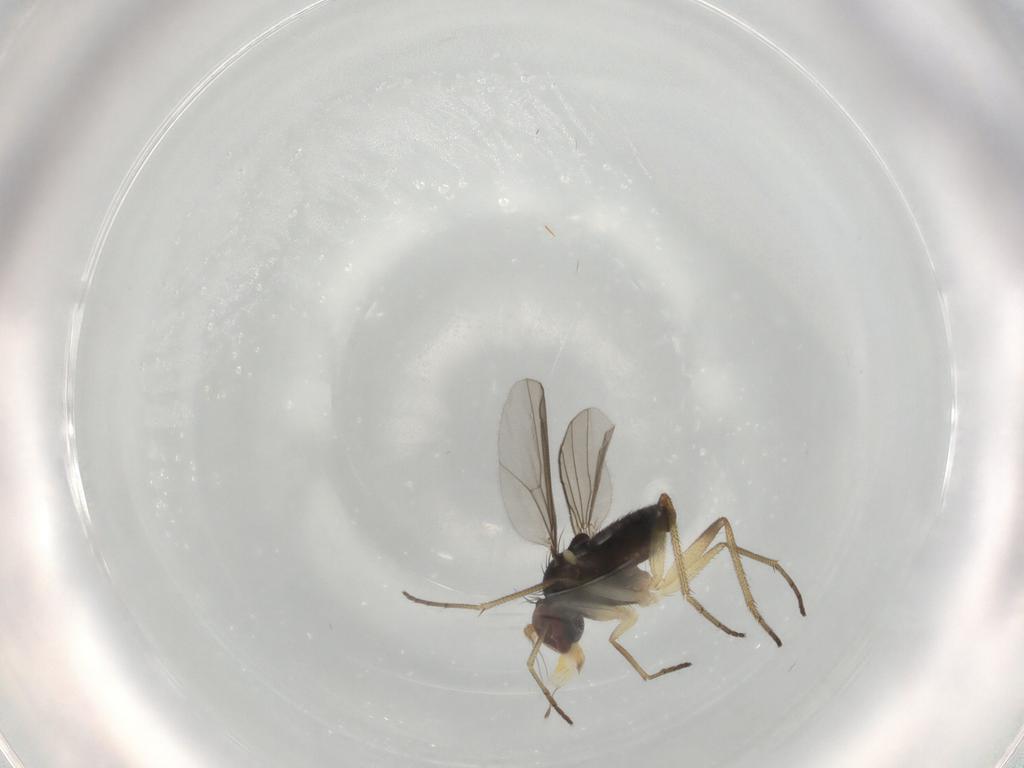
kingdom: Animalia
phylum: Arthropoda
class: Insecta
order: Diptera
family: Dolichopodidae
